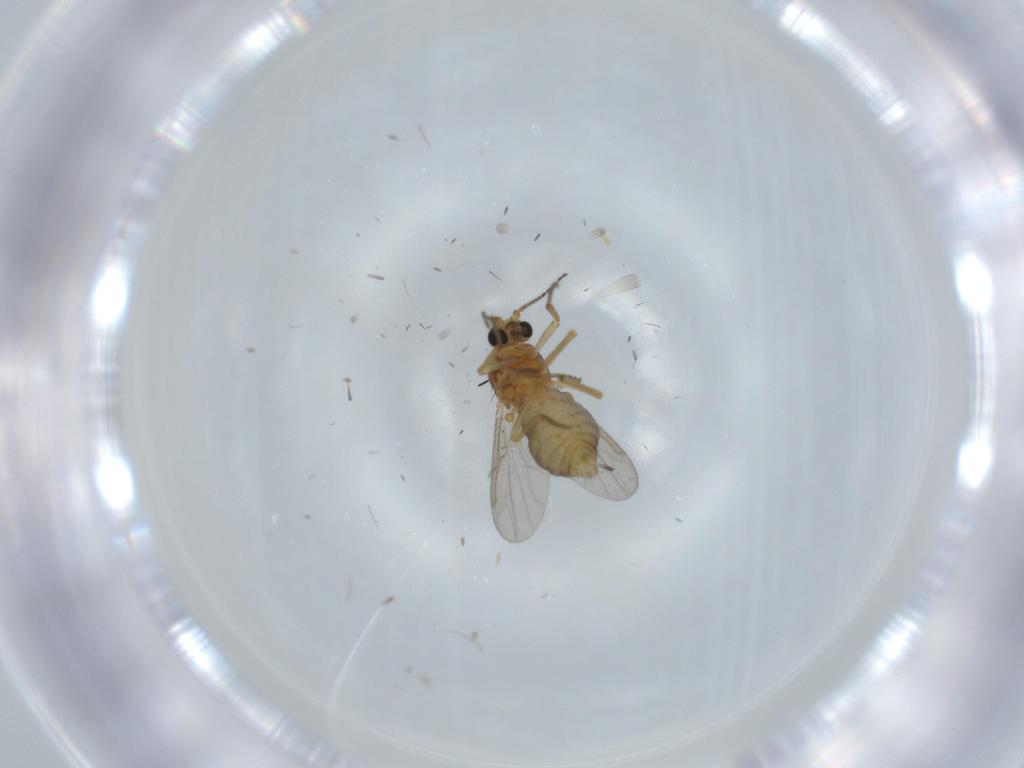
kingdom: Animalia
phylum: Arthropoda
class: Insecta
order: Diptera
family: Ceratopogonidae
